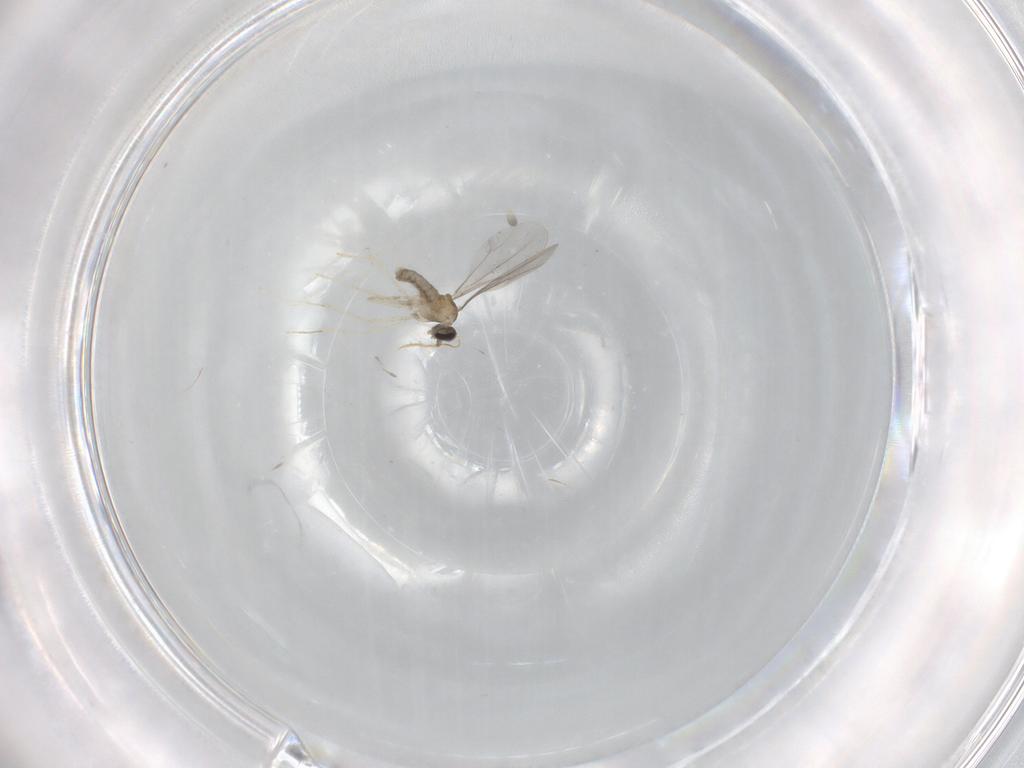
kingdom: Animalia
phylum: Arthropoda
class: Insecta
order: Diptera
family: Cecidomyiidae
